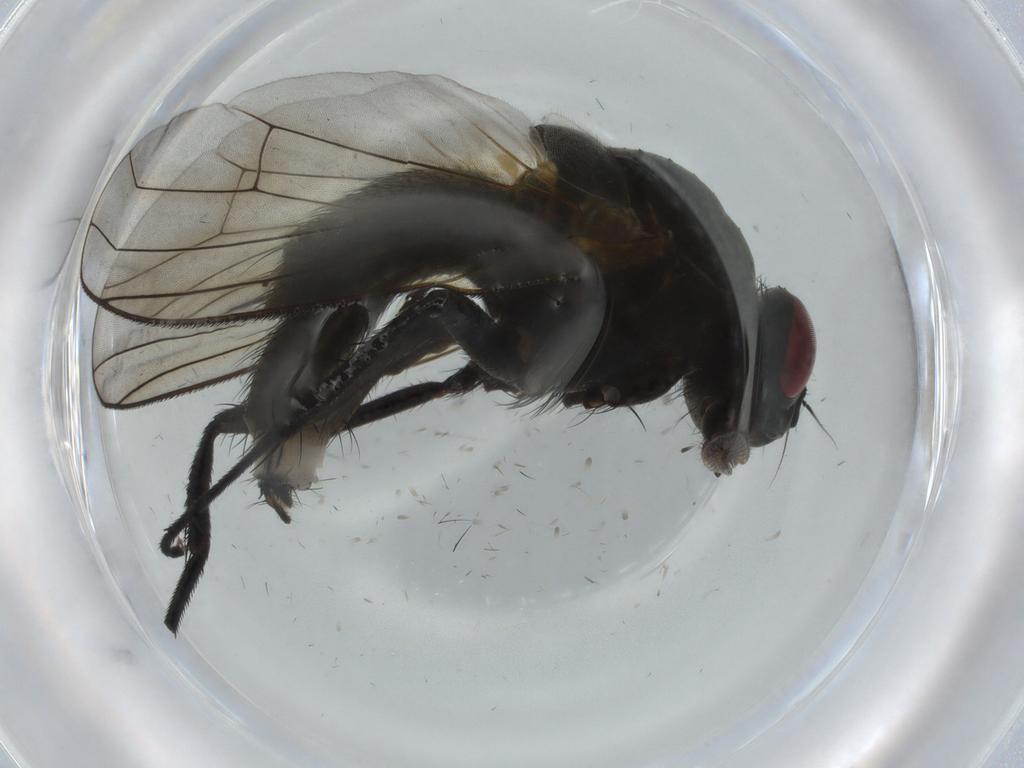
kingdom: Animalia
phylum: Arthropoda
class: Insecta
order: Diptera
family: Muscidae
